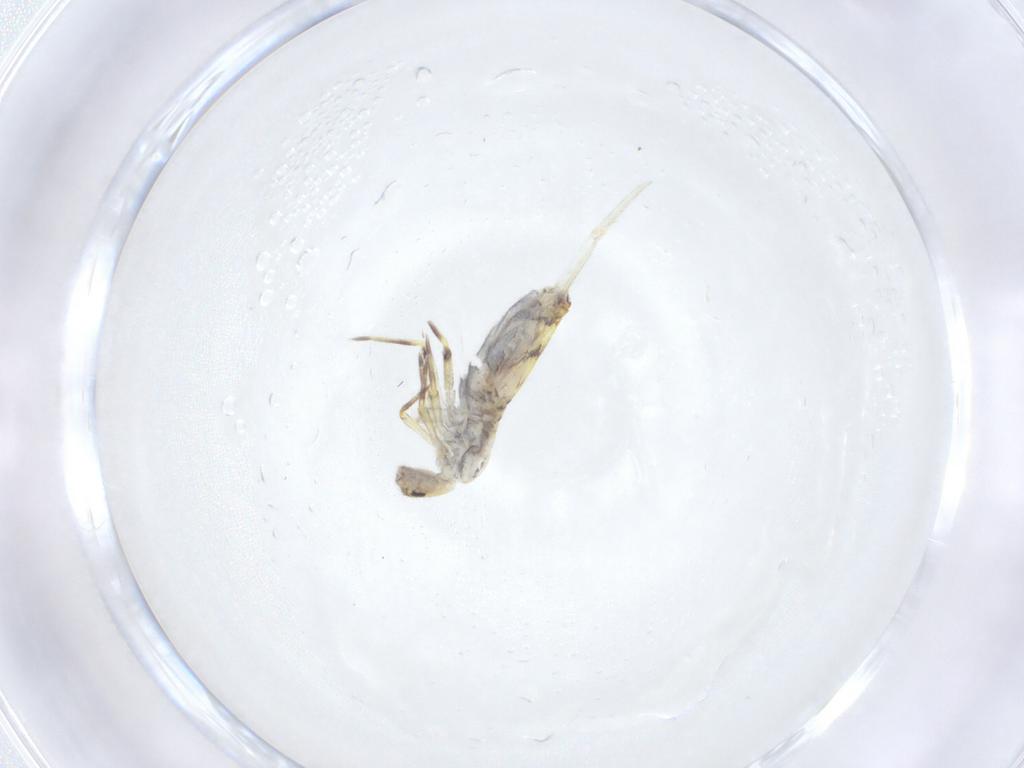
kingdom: Animalia
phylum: Arthropoda
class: Collembola
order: Entomobryomorpha
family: Entomobryidae
